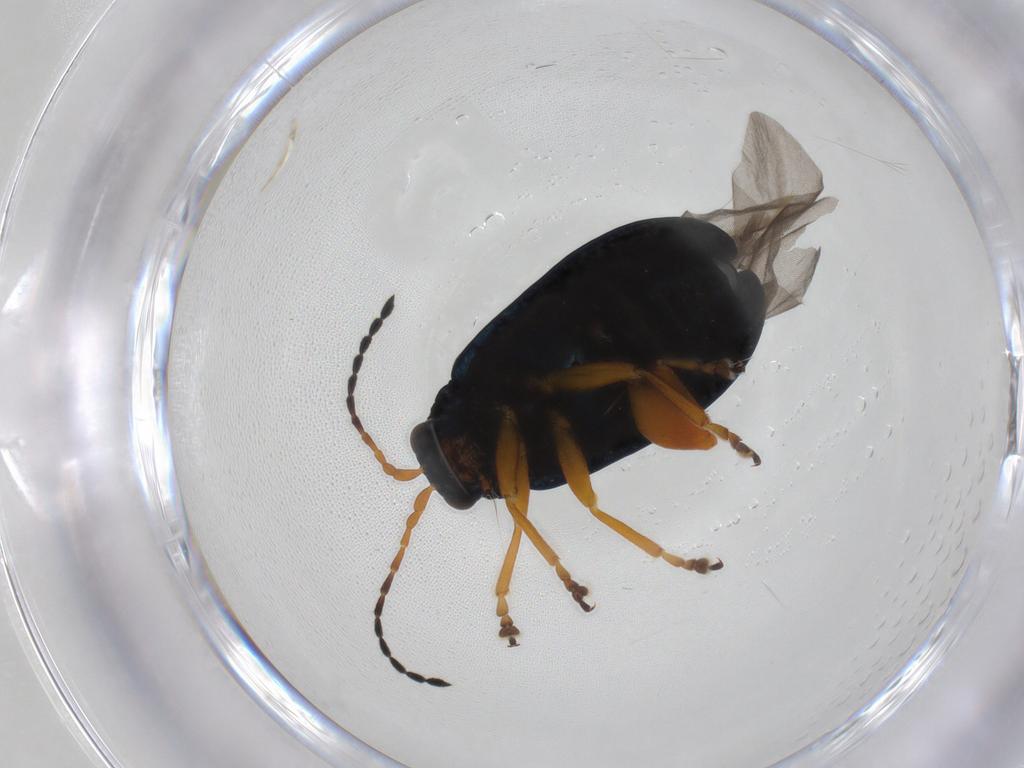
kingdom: Animalia
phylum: Arthropoda
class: Insecta
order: Coleoptera
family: Chrysomelidae
